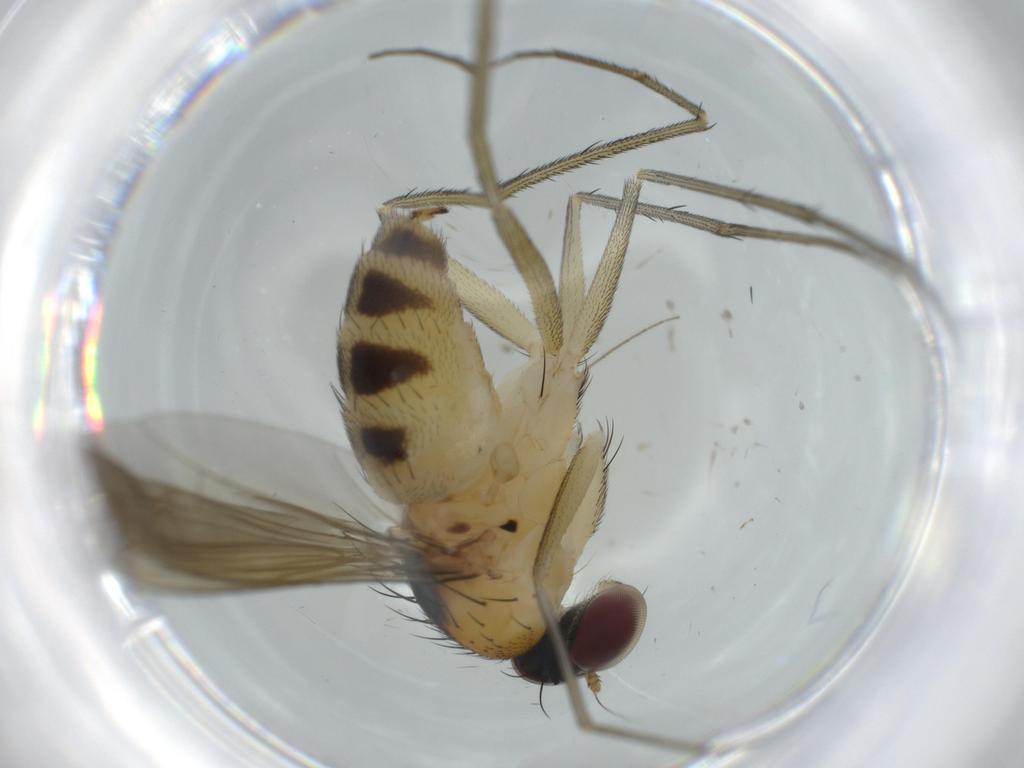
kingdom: Animalia
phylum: Arthropoda
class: Insecta
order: Diptera
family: Dolichopodidae
